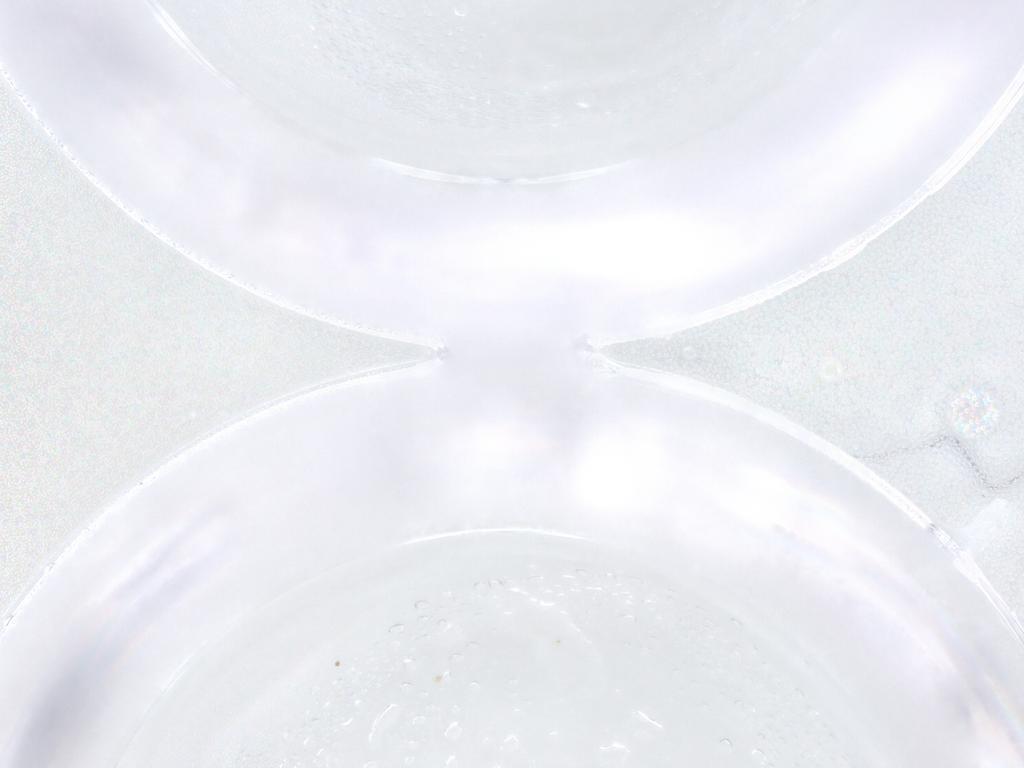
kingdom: Animalia
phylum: Arthropoda
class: Insecta
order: Diptera
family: Psychodidae
